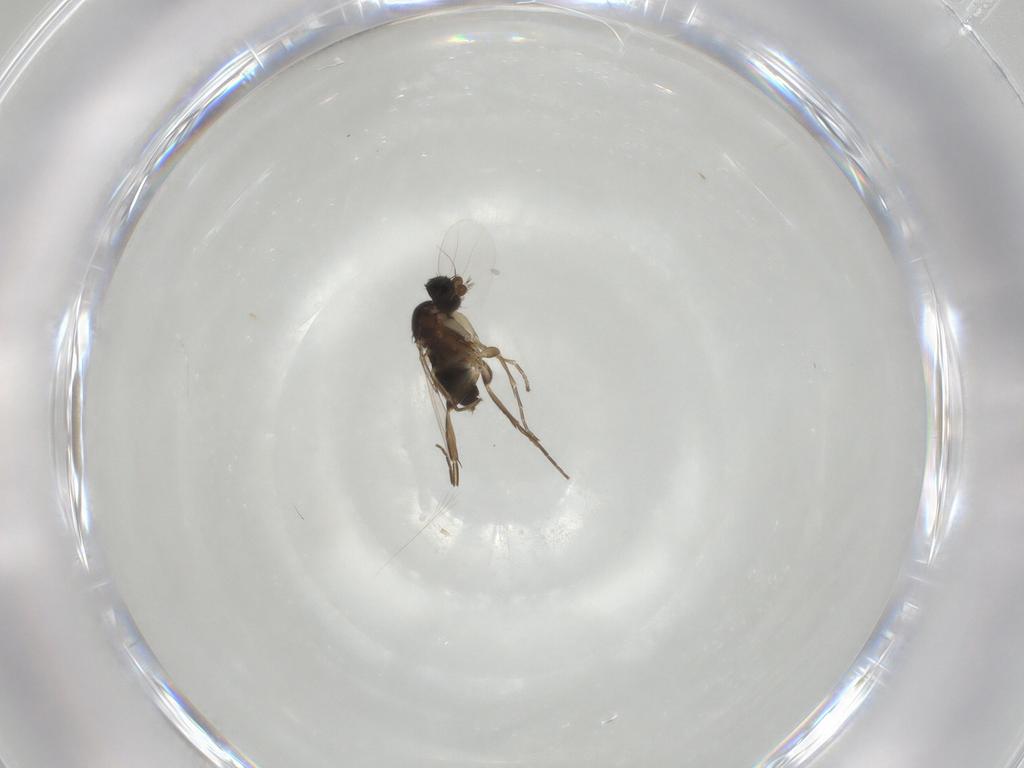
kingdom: Animalia
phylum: Arthropoda
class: Insecta
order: Diptera
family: Phoridae
